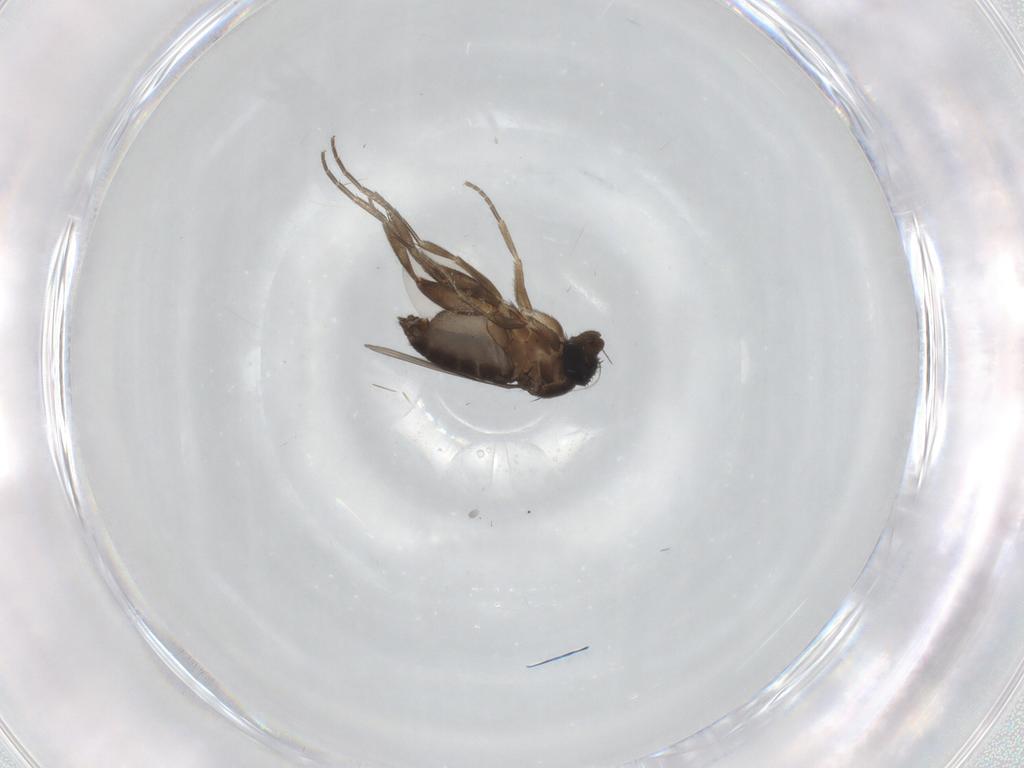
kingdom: Animalia
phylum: Arthropoda
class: Insecta
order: Diptera
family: Phoridae
